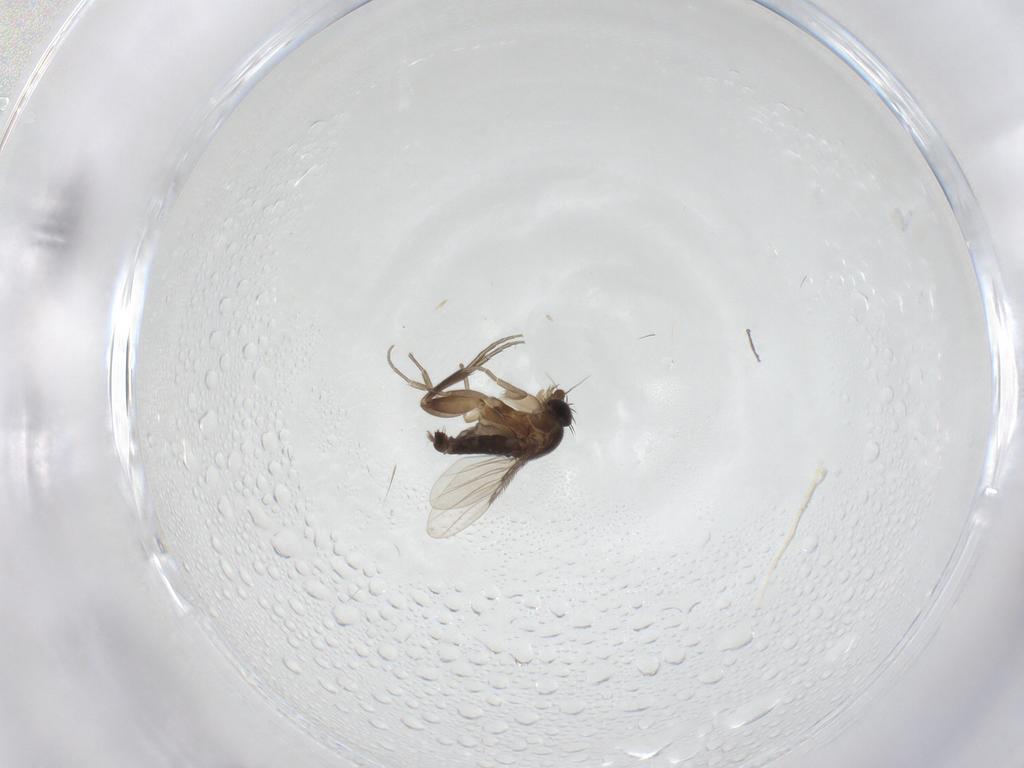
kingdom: Animalia
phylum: Arthropoda
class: Insecta
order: Diptera
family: Phoridae
